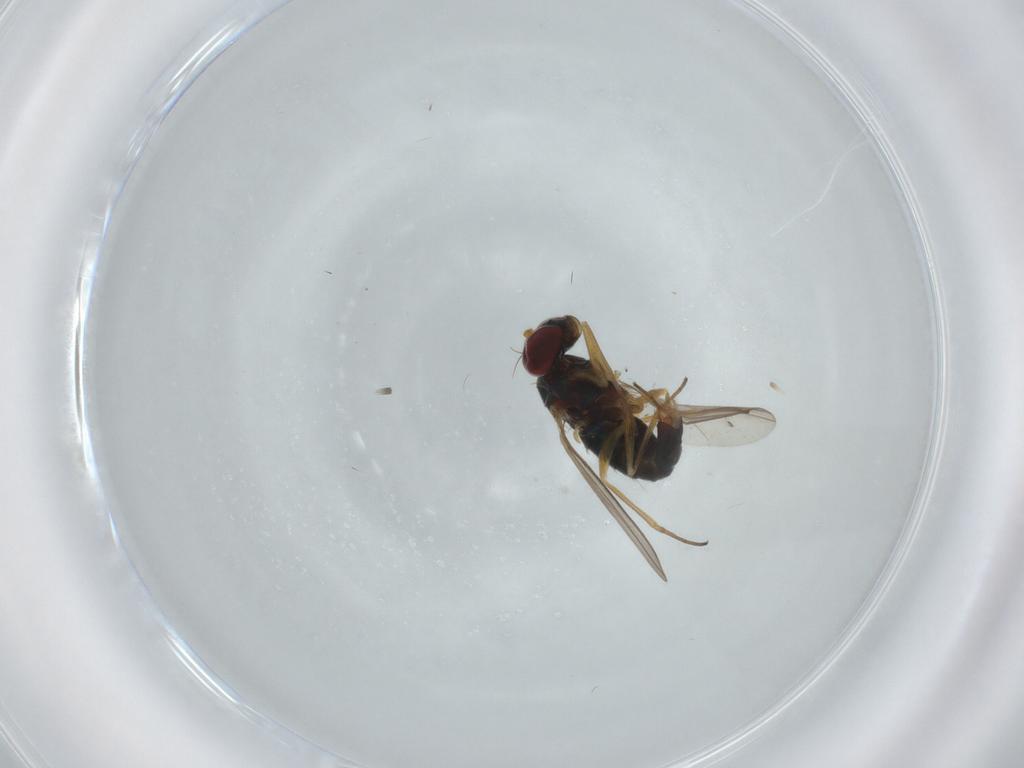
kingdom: Animalia
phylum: Arthropoda
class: Insecta
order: Diptera
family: Dolichopodidae
